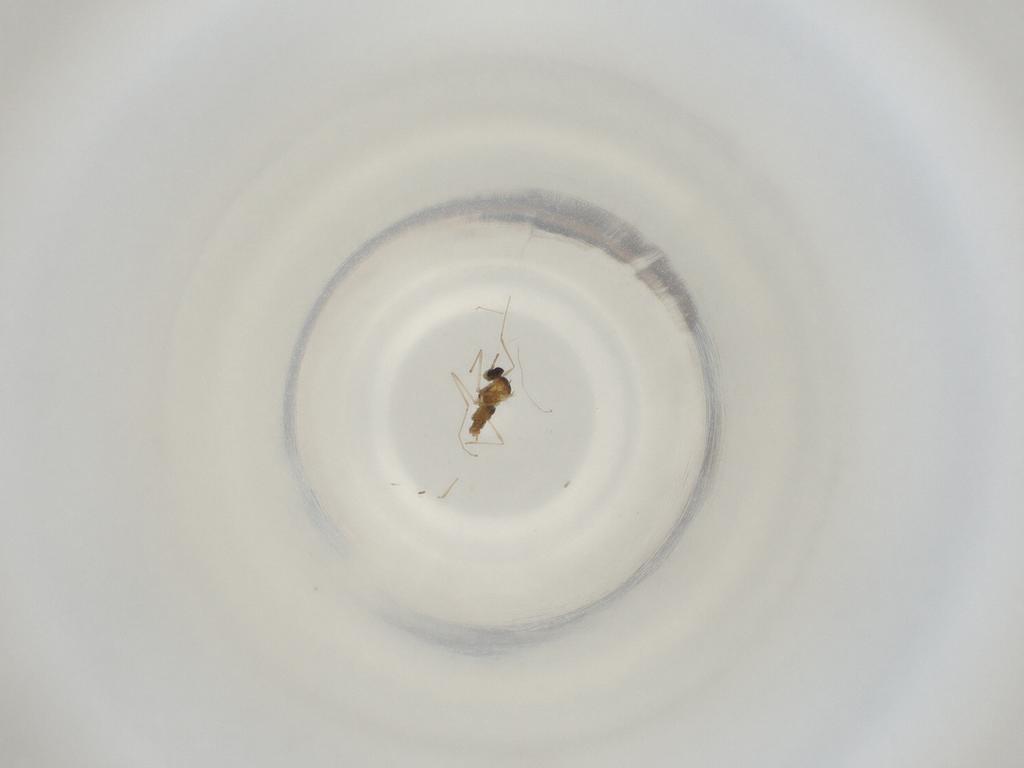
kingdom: Animalia
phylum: Arthropoda
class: Insecta
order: Diptera
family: Cecidomyiidae
